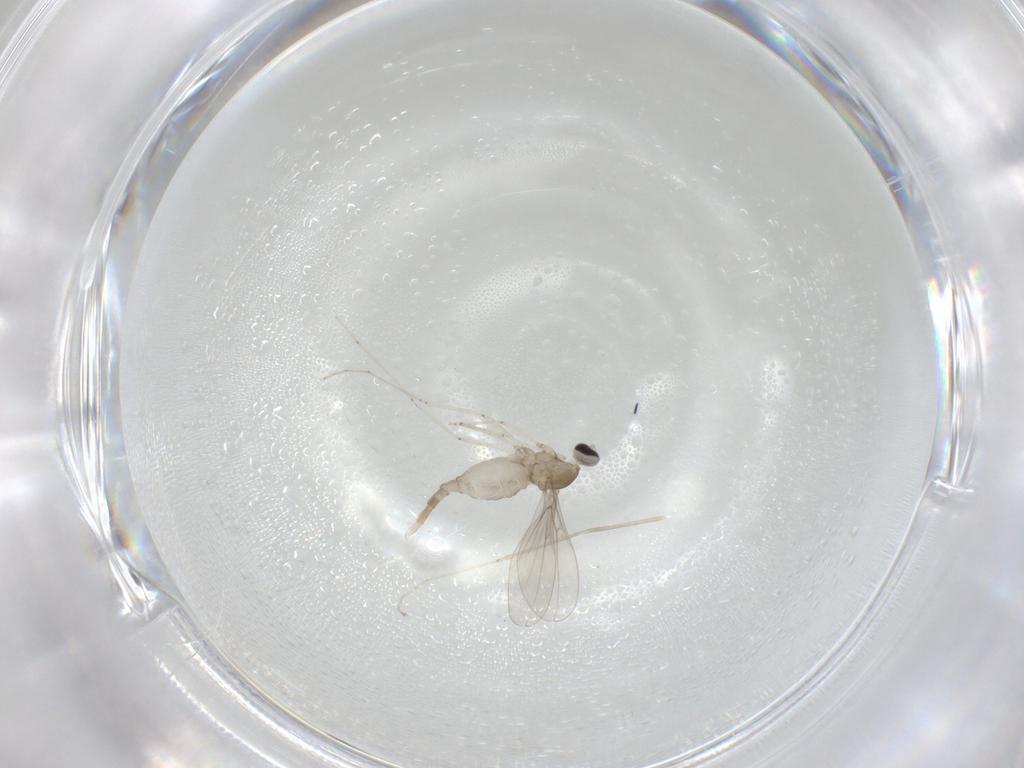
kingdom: Animalia
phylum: Arthropoda
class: Insecta
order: Diptera
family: Cecidomyiidae
